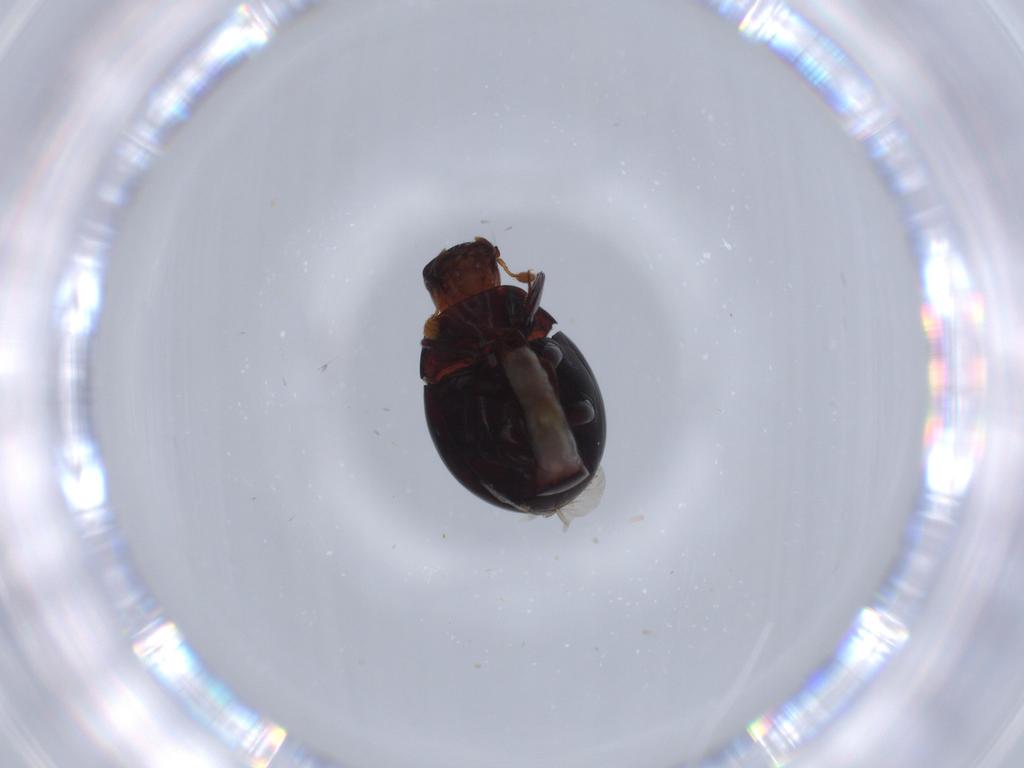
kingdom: Animalia
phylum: Arthropoda
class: Insecta
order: Coleoptera
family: Histeridae
